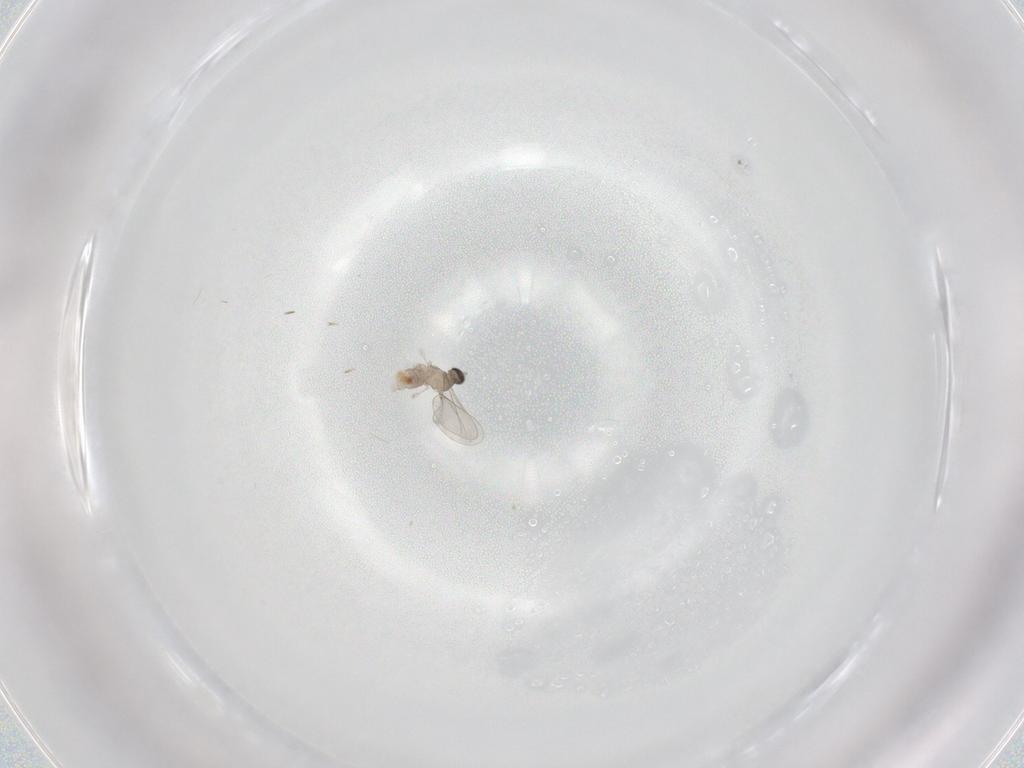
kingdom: Animalia
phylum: Arthropoda
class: Insecta
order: Diptera
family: Cecidomyiidae
